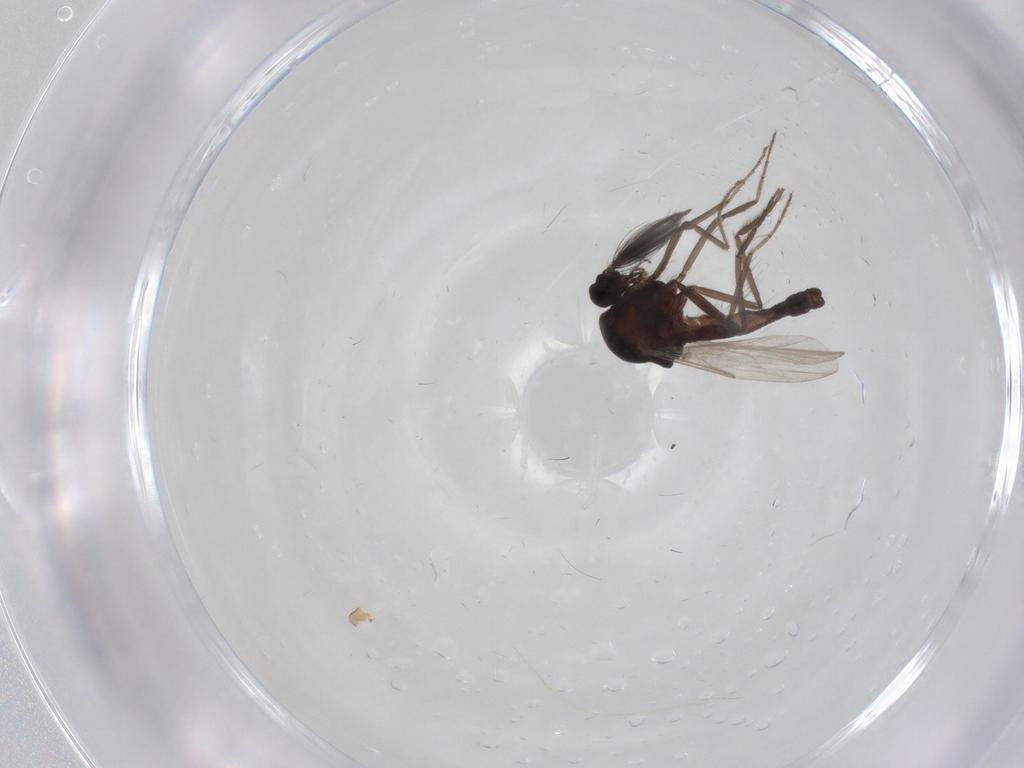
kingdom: Animalia
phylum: Arthropoda
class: Insecta
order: Diptera
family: Ceratopogonidae
